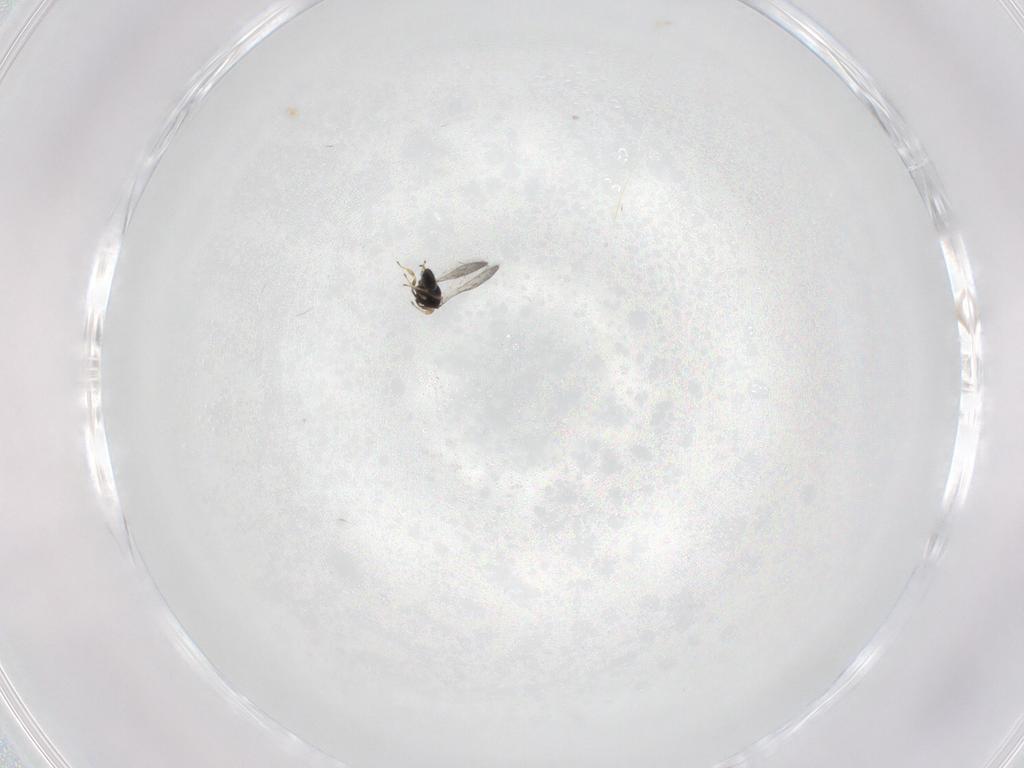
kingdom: Animalia
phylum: Arthropoda
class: Insecta
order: Hymenoptera
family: Scelionidae
